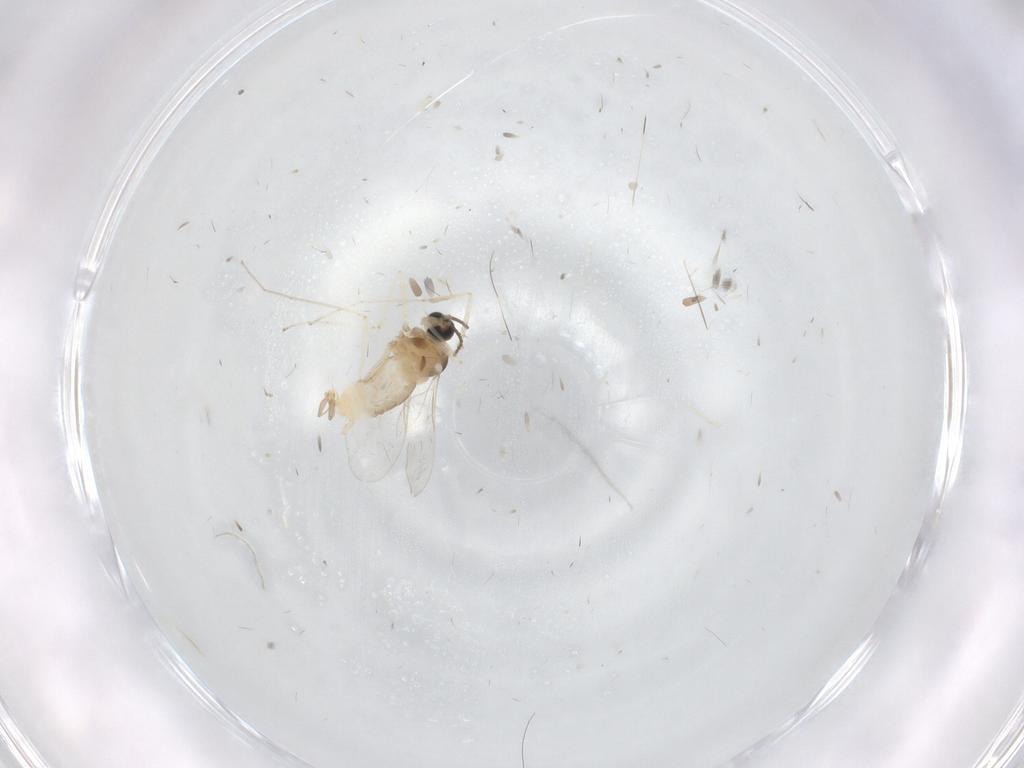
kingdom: Animalia
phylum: Arthropoda
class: Insecta
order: Diptera
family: Cecidomyiidae
